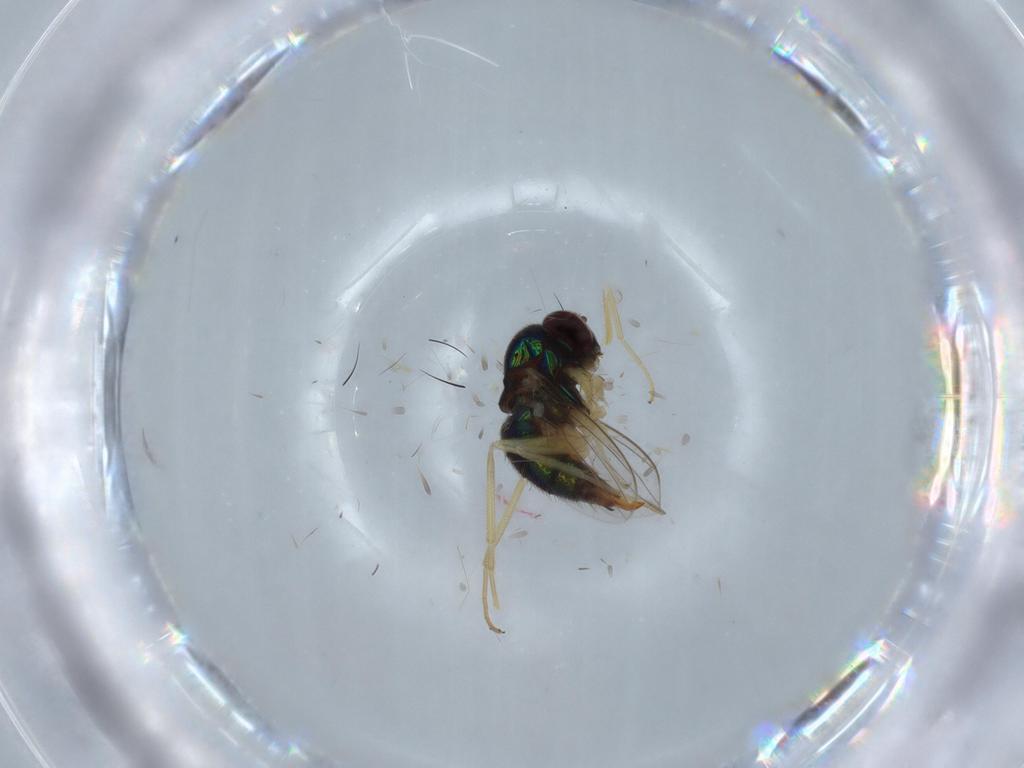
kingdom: Animalia
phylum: Arthropoda
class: Insecta
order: Diptera
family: Dolichopodidae
